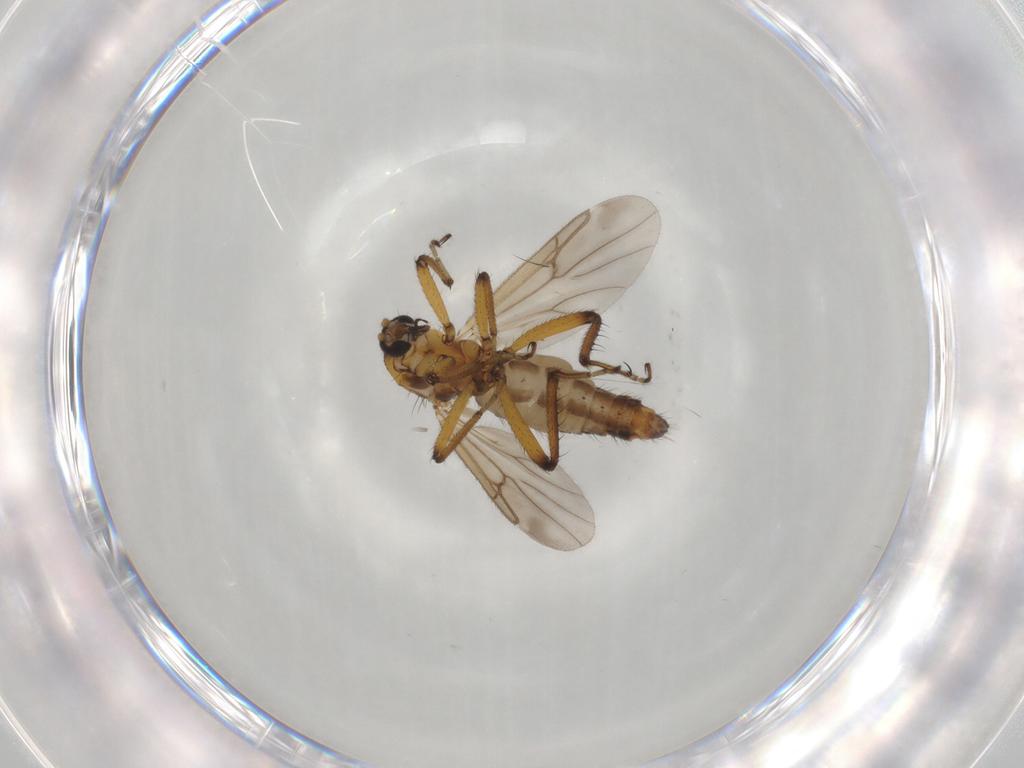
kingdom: Animalia
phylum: Arthropoda
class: Insecta
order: Diptera
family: Ceratopogonidae
